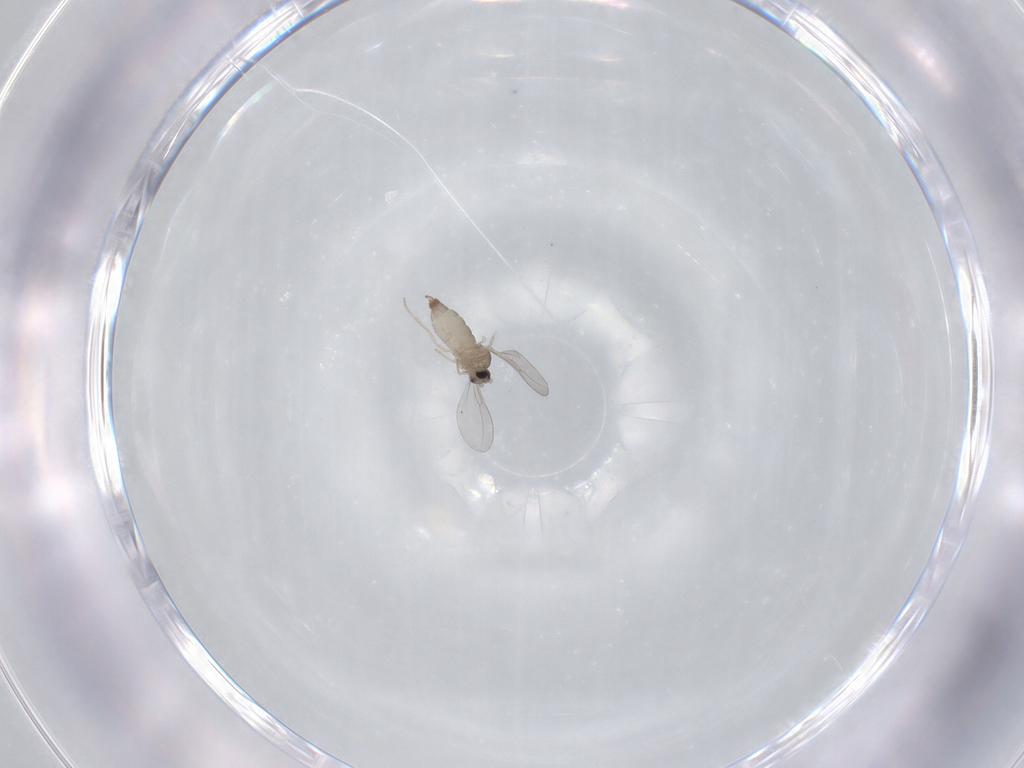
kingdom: Animalia
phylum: Arthropoda
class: Insecta
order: Diptera
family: Cecidomyiidae
